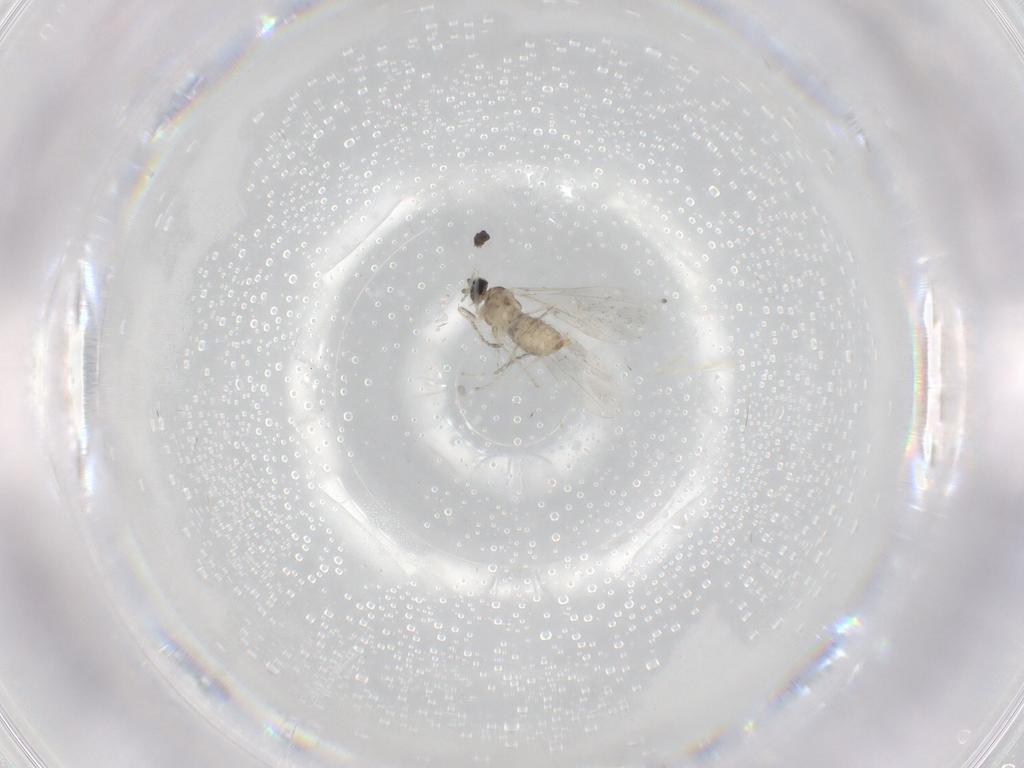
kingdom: Animalia
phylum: Arthropoda
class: Insecta
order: Diptera
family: Cecidomyiidae
